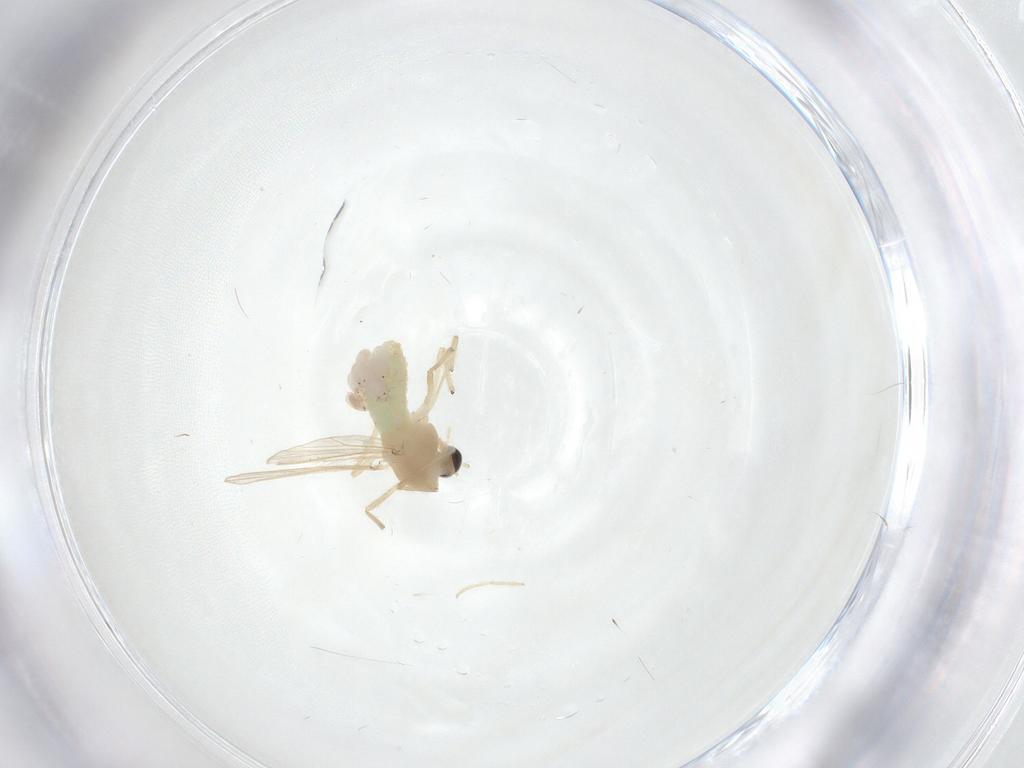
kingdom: Animalia
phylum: Arthropoda
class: Insecta
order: Diptera
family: Chironomidae
